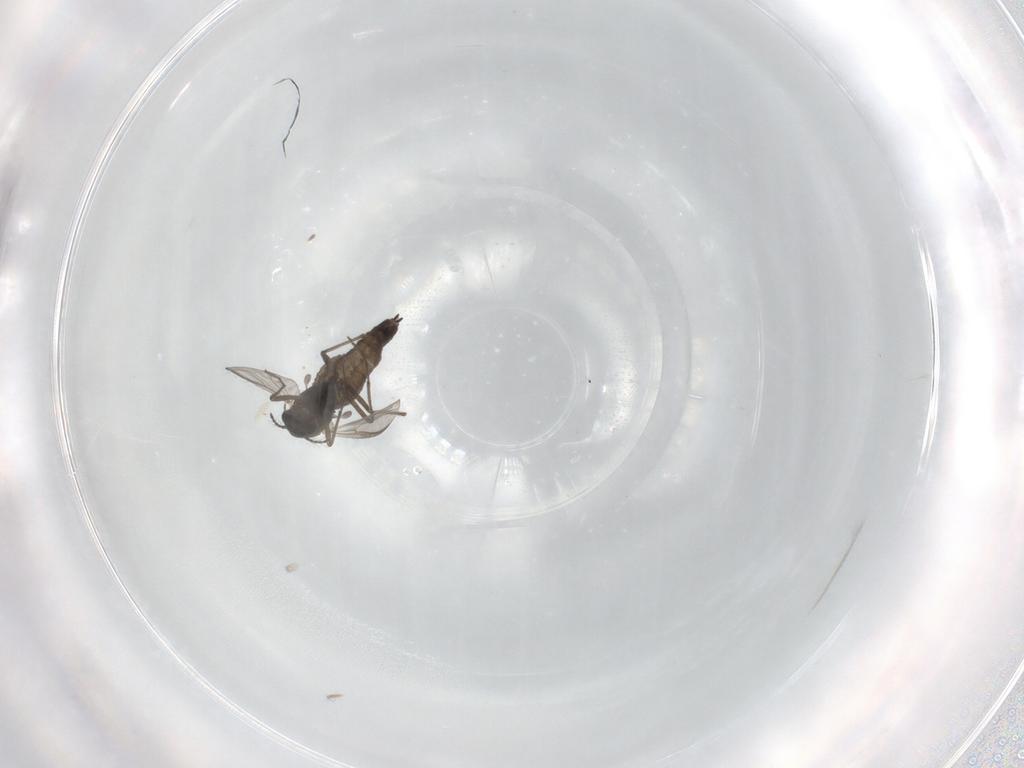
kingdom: Animalia
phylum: Arthropoda
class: Insecta
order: Diptera
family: Chironomidae
